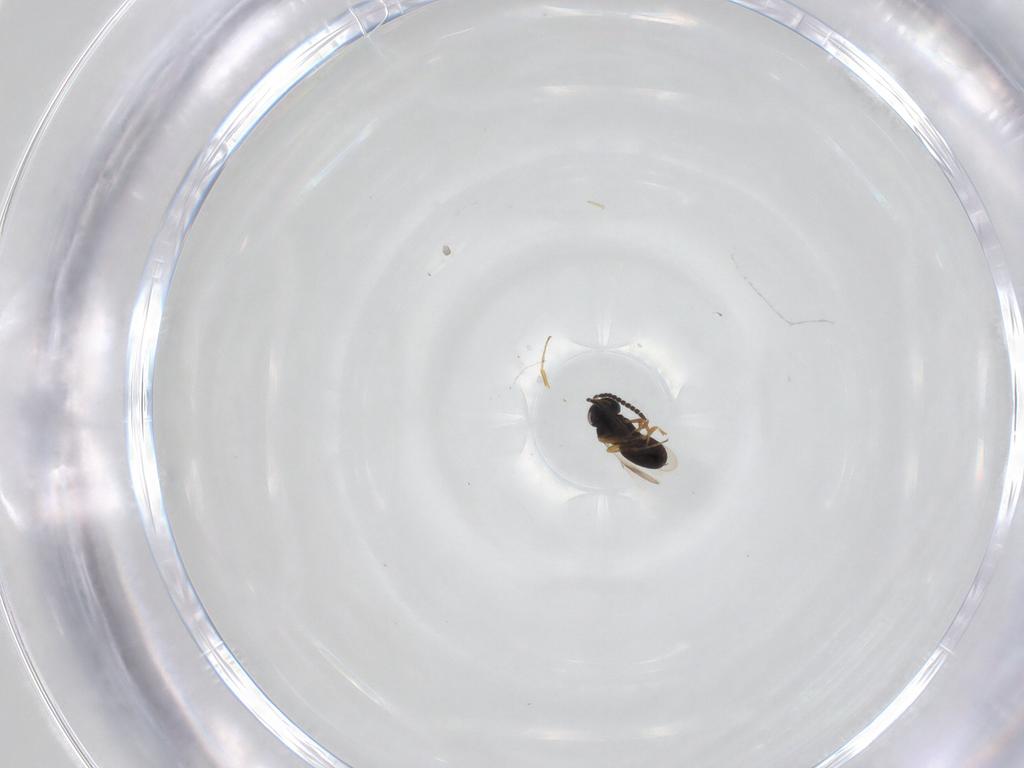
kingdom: Animalia
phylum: Arthropoda
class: Insecta
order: Hymenoptera
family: Scelionidae
